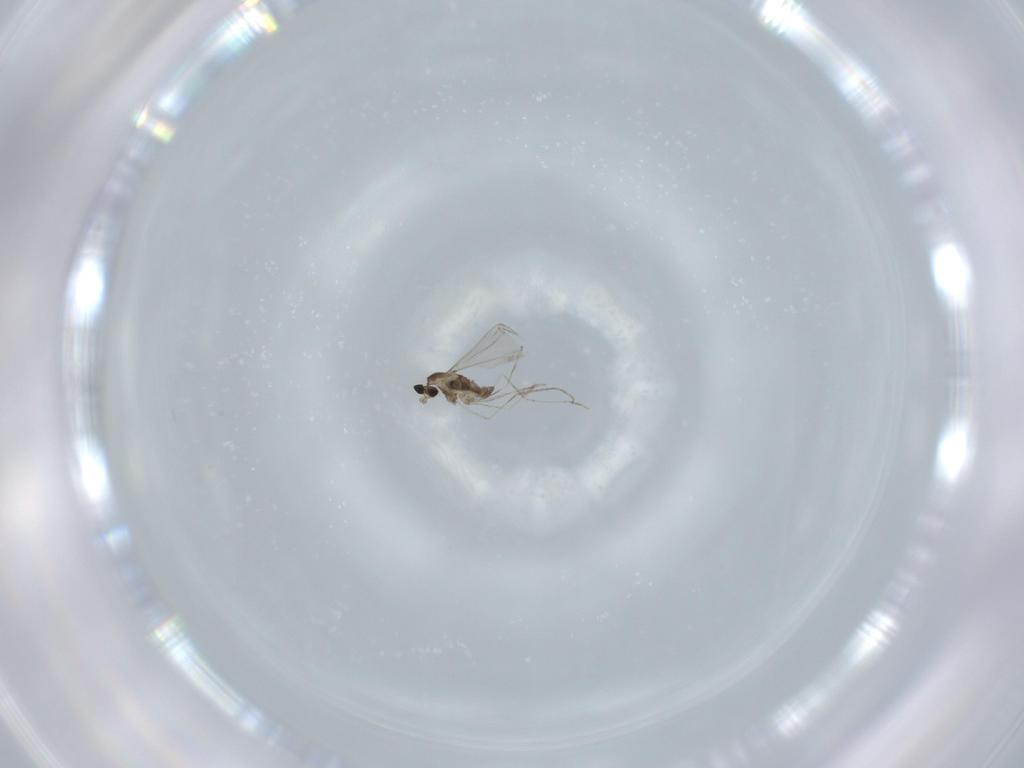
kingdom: Animalia
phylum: Arthropoda
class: Insecta
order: Diptera
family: Cecidomyiidae
